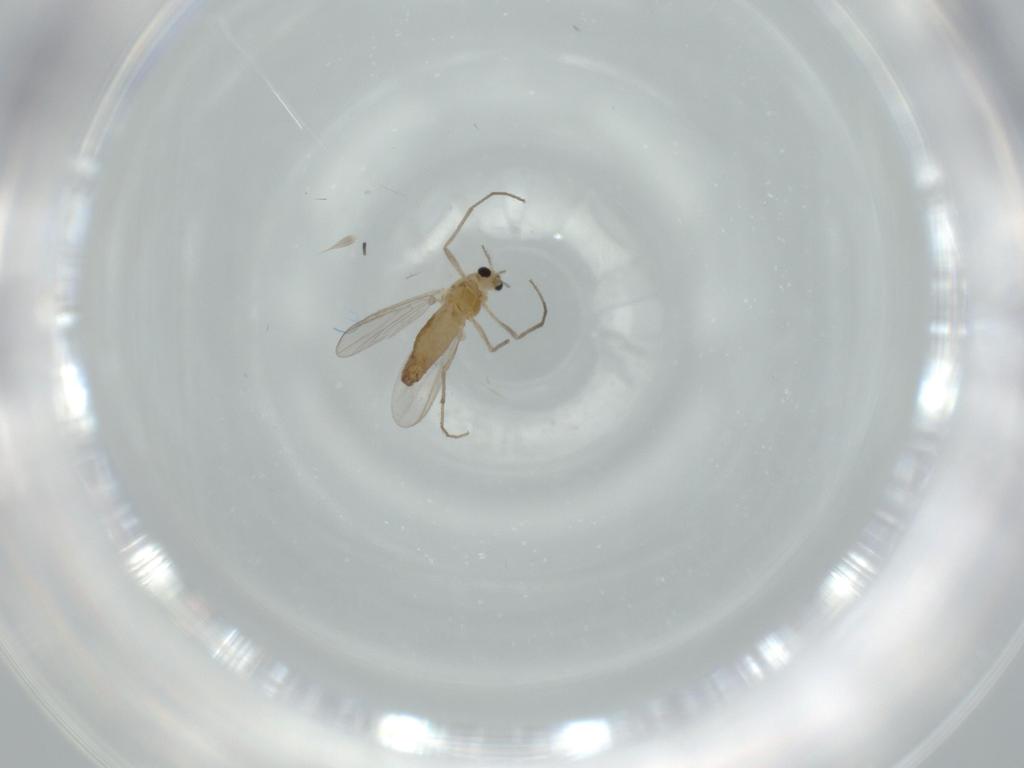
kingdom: Animalia
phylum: Arthropoda
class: Insecta
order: Diptera
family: Chironomidae
